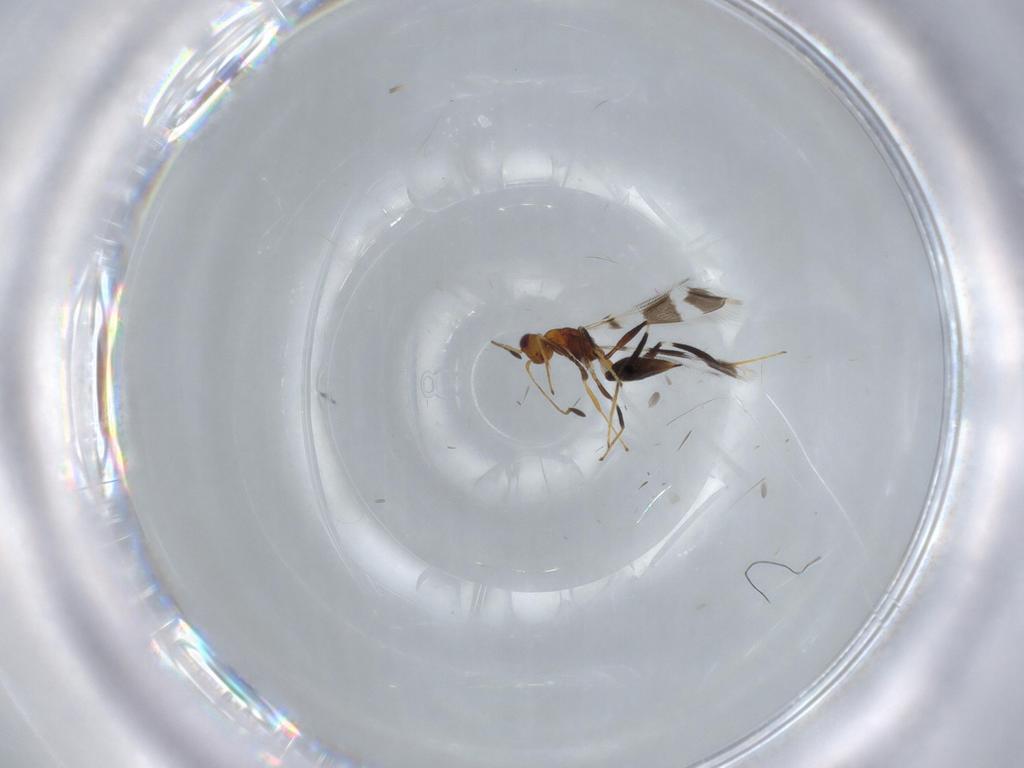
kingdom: Animalia
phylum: Arthropoda
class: Insecta
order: Hymenoptera
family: Mymaridae
